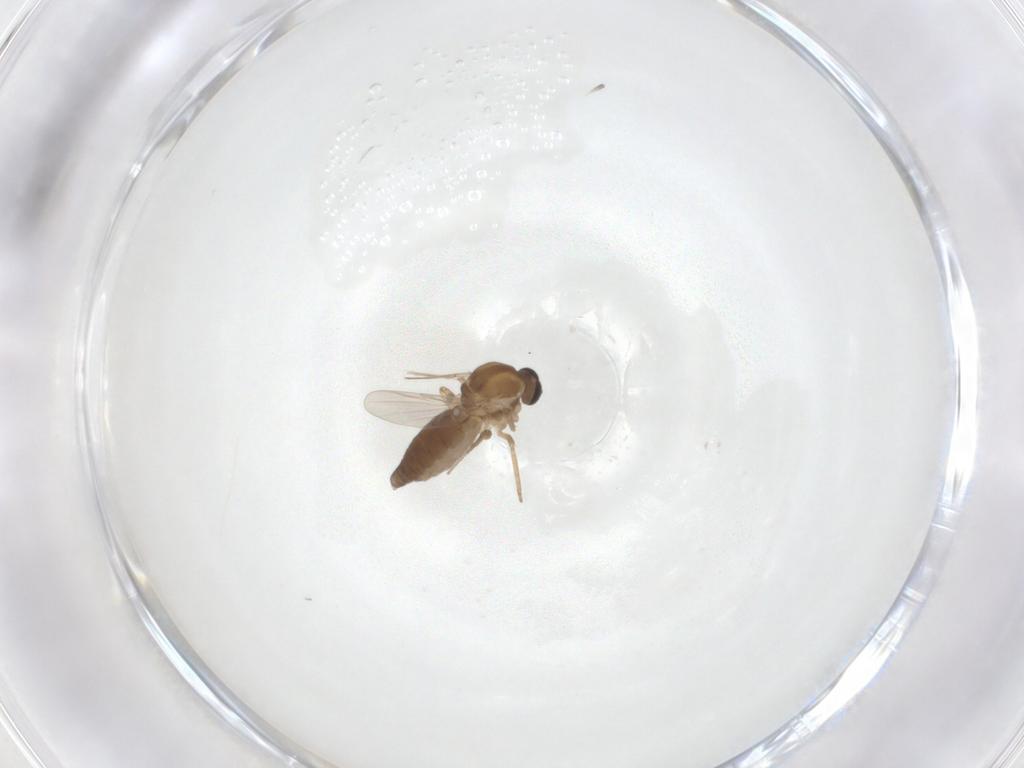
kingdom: Animalia
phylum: Arthropoda
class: Insecta
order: Diptera
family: Ceratopogonidae
